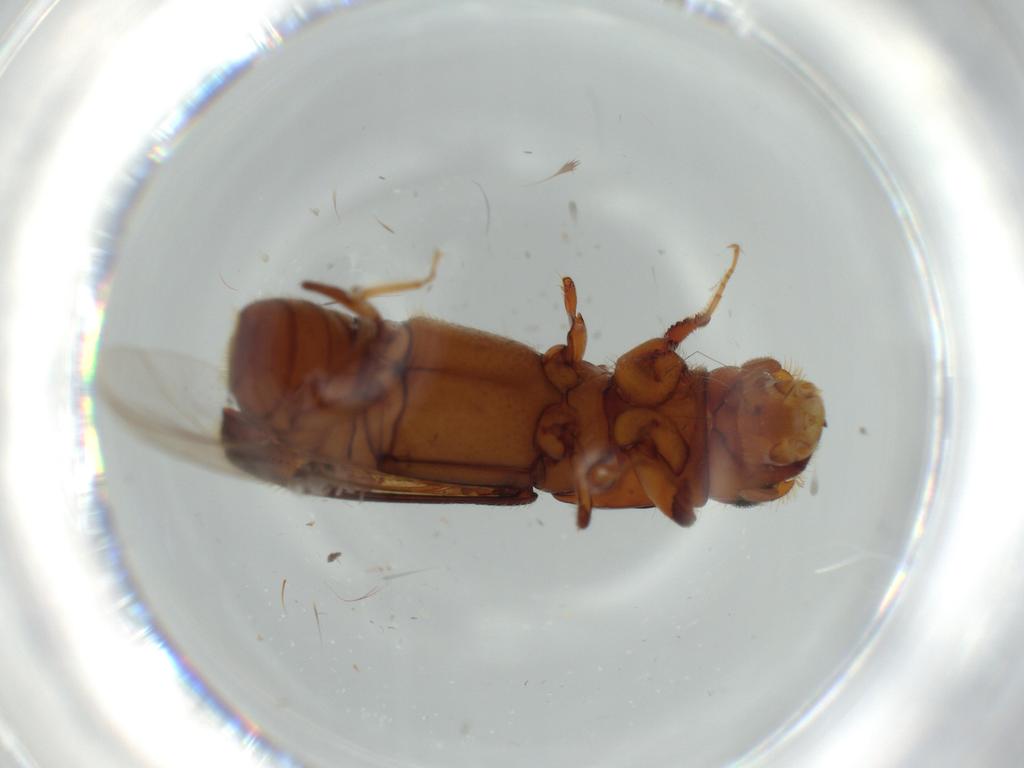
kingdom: Animalia
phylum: Arthropoda
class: Insecta
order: Coleoptera
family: Curculionidae
